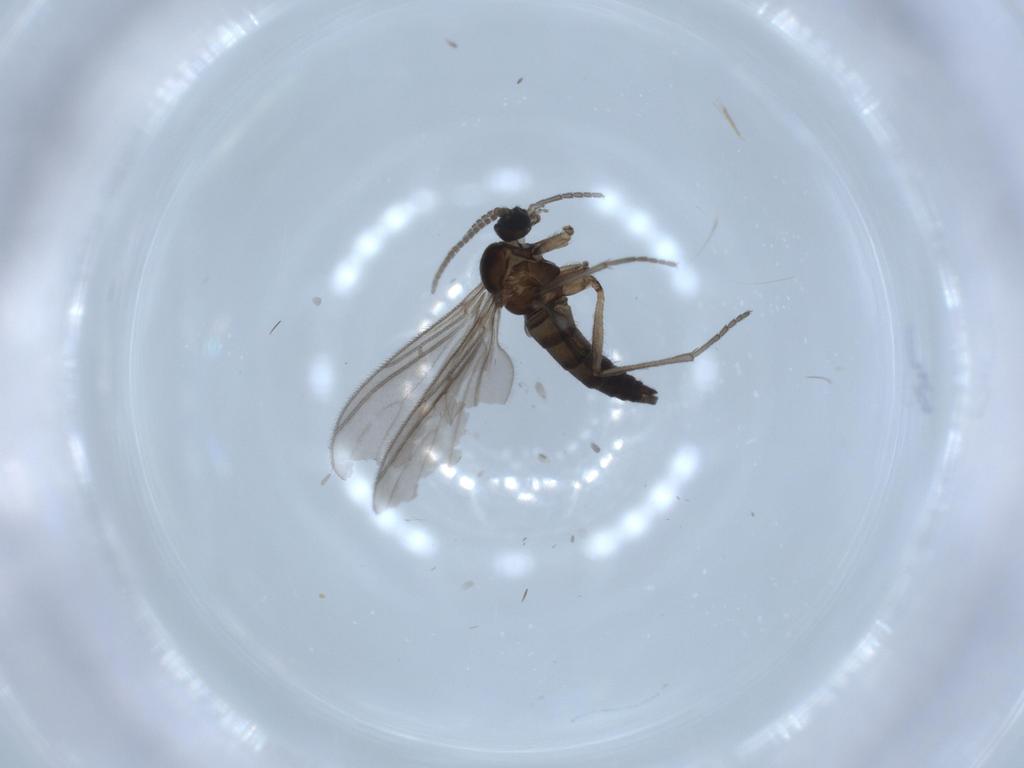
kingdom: Animalia
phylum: Arthropoda
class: Insecta
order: Diptera
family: Sciaridae
